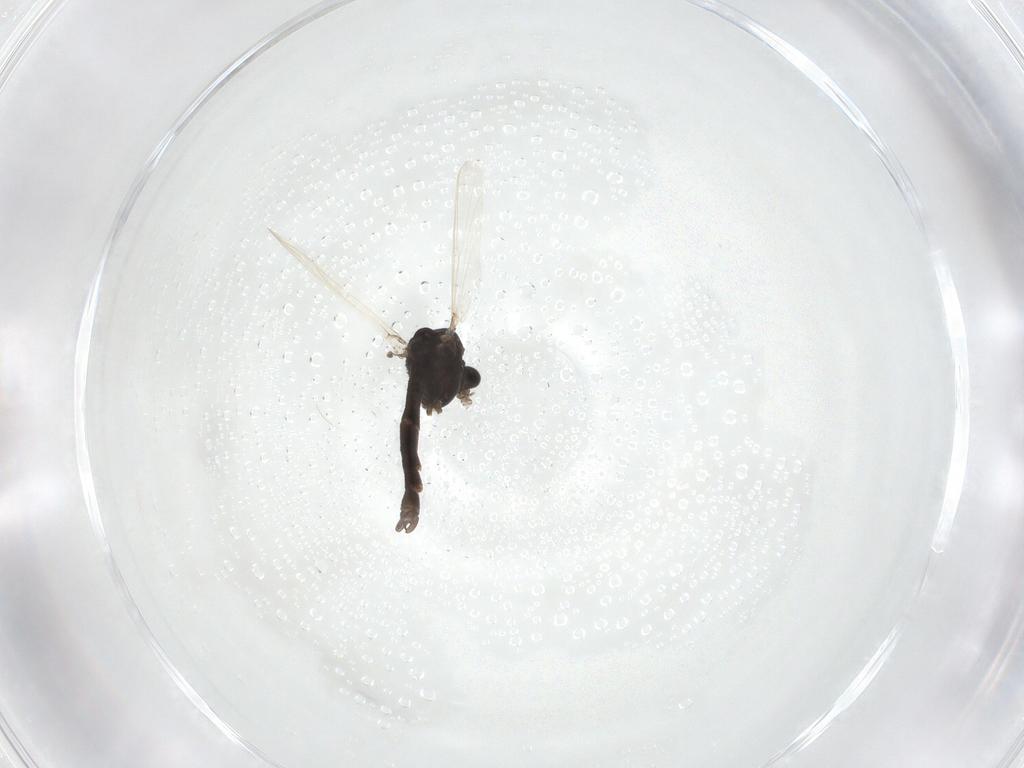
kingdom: Animalia
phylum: Arthropoda
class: Insecta
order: Diptera
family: Chironomidae
